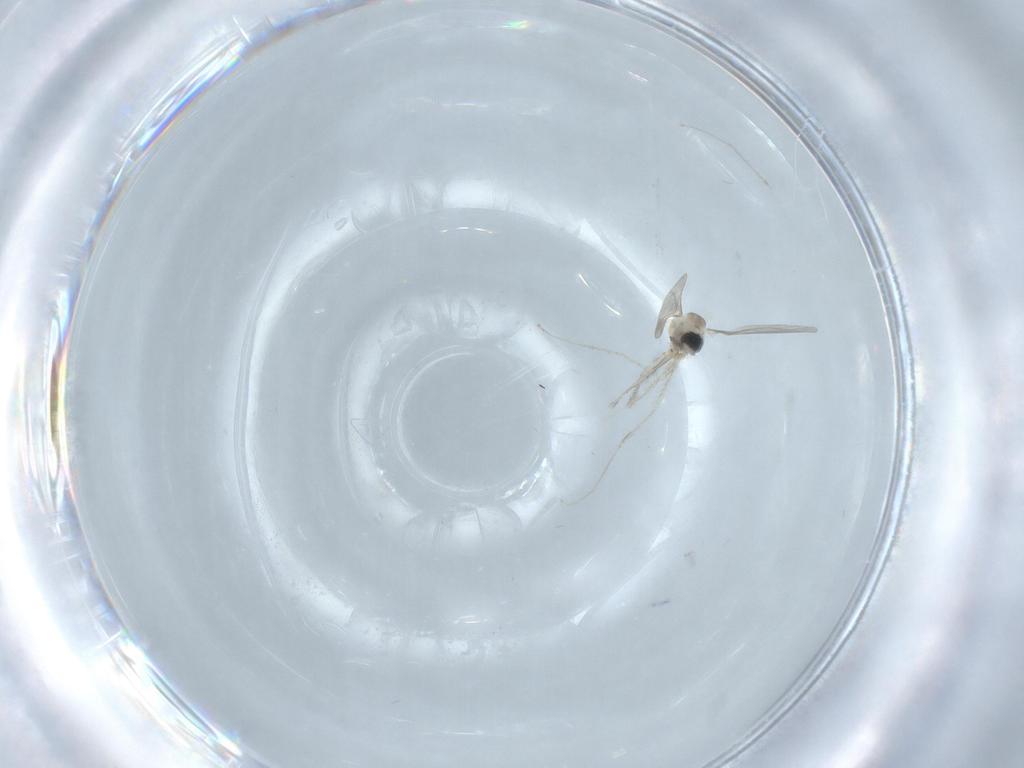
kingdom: Animalia
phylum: Arthropoda
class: Insecta
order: Diptera
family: Cecidomyiidae
